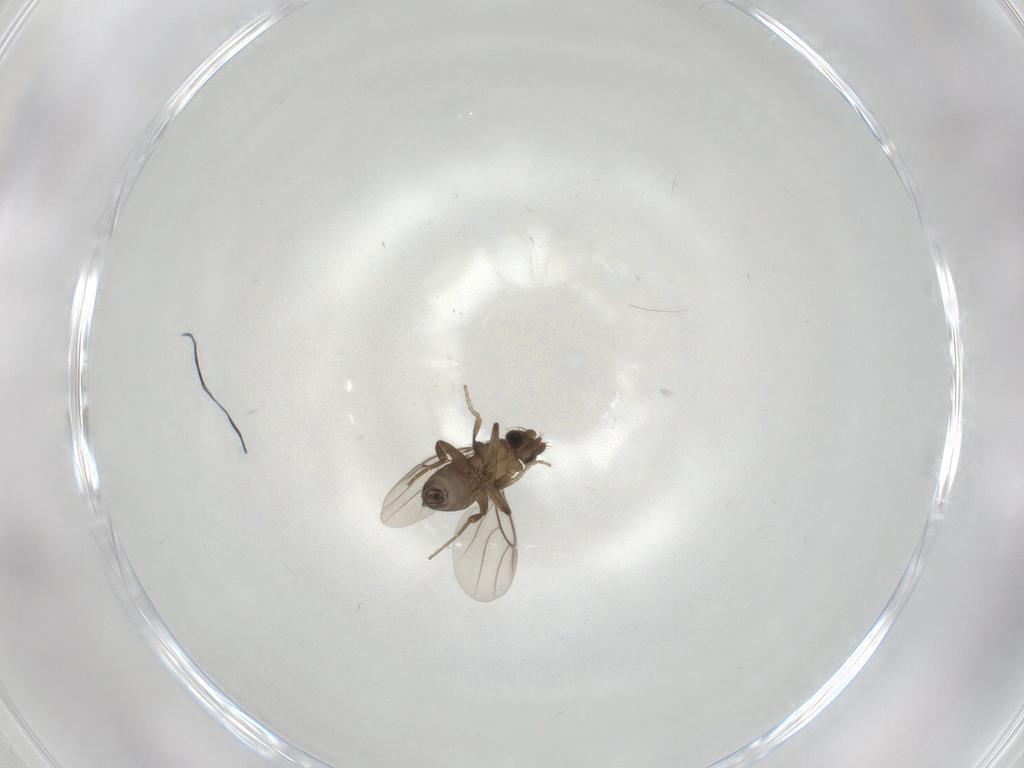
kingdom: Animalia
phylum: Arthropoda
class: Insecta
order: Diptera
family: Phoridae
